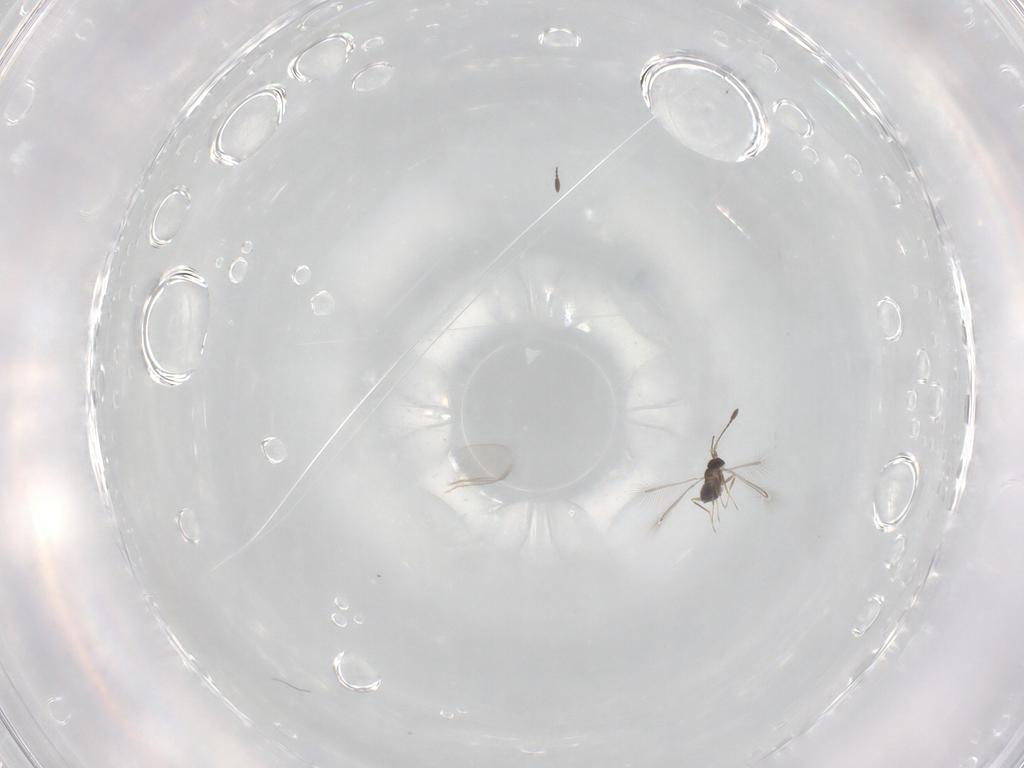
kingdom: Animalia
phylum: Arthropoda
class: Insecta
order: Hymenoptera
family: Mymaridae
